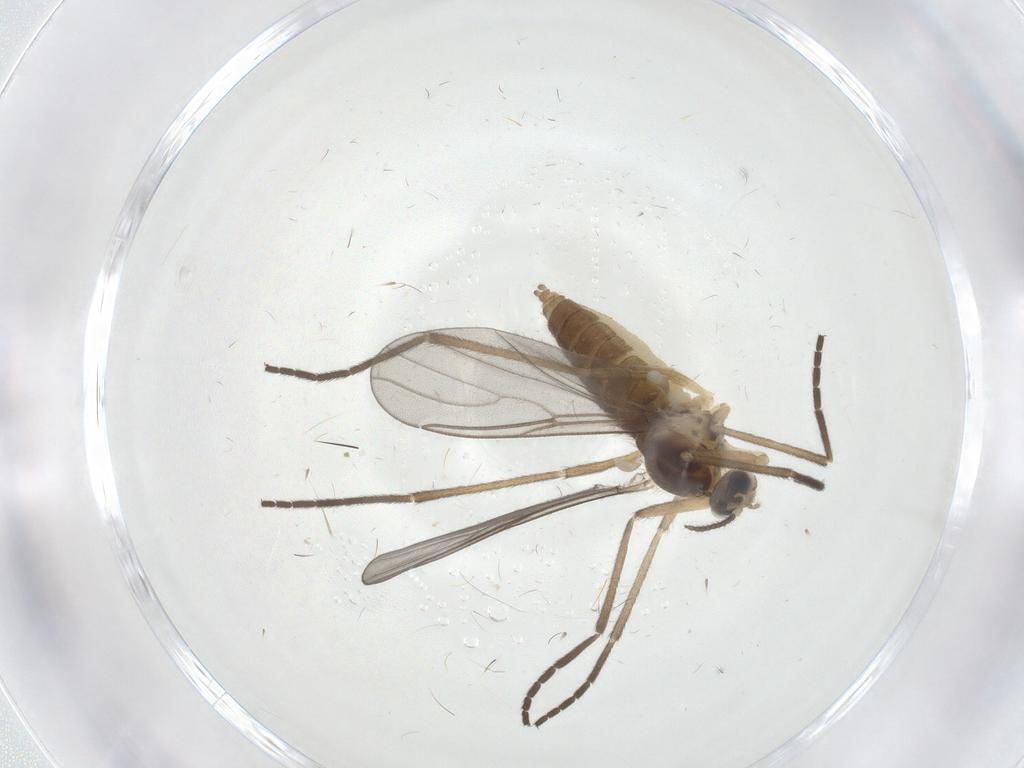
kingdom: Animalia
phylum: Arthropoda
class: Insecta
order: Diptera
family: Cecidomyiidae
